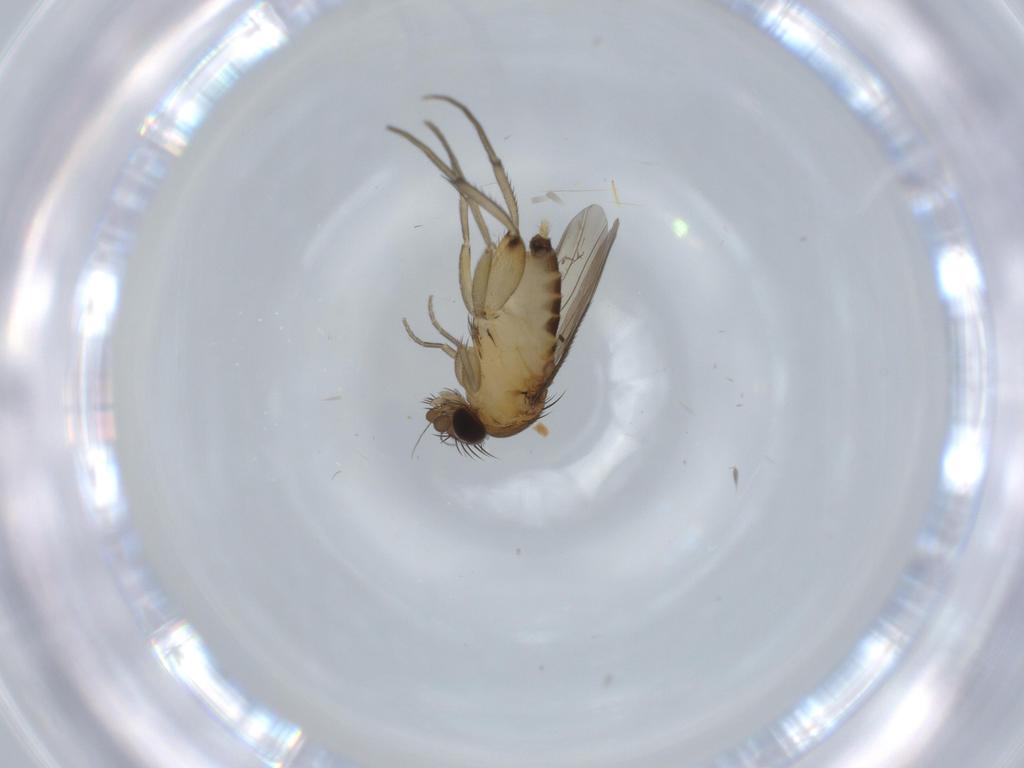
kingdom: Animalia
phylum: Arthropoda
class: Insecta
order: Diptera
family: Phoridae
